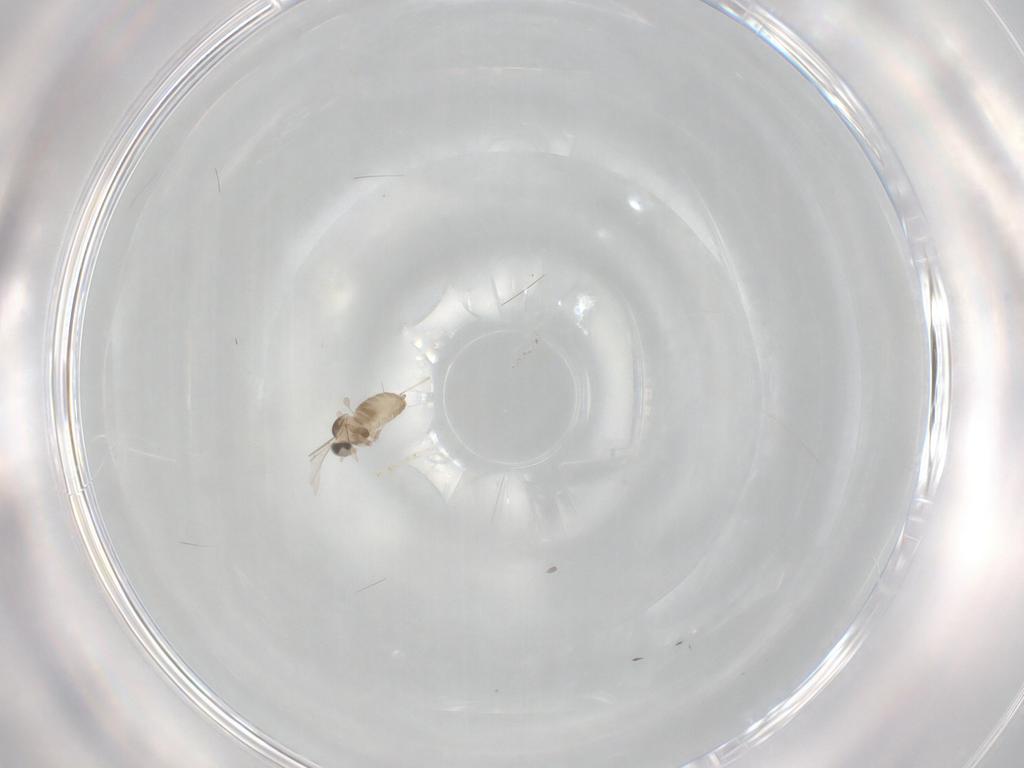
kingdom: Animalia
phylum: Arthropoda
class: Insecta
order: Diptera
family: Cecidomyiidae
